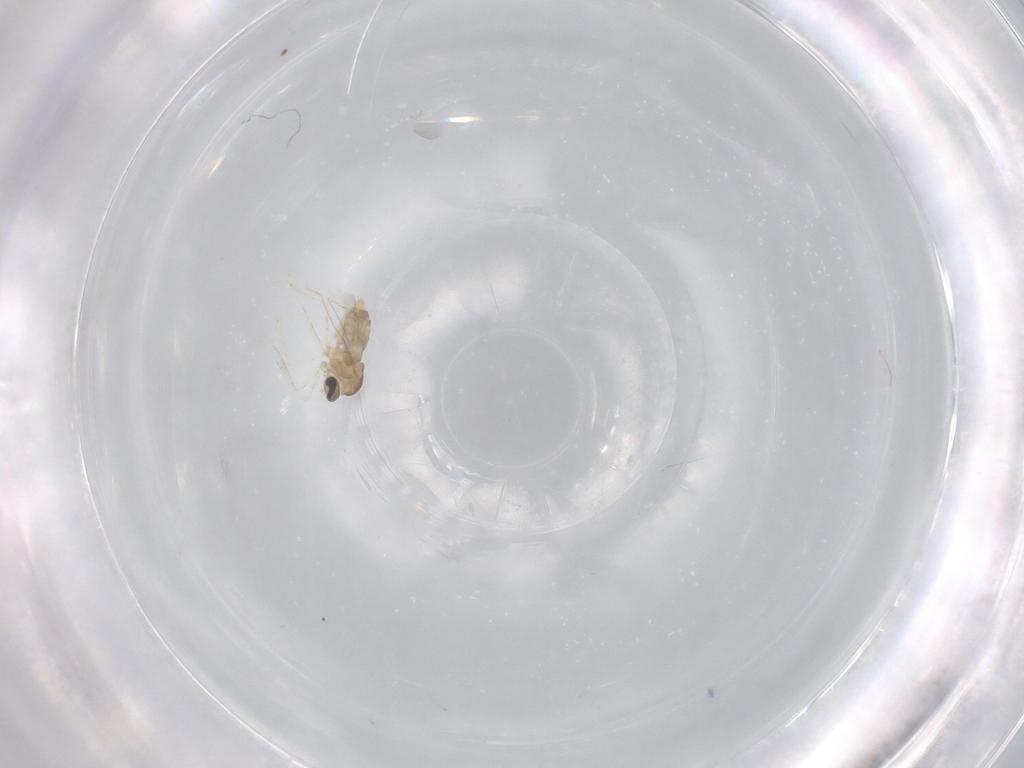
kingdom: Animalia
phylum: Arthropoda
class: Insecta
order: Diptera
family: Cecidomyiidae
